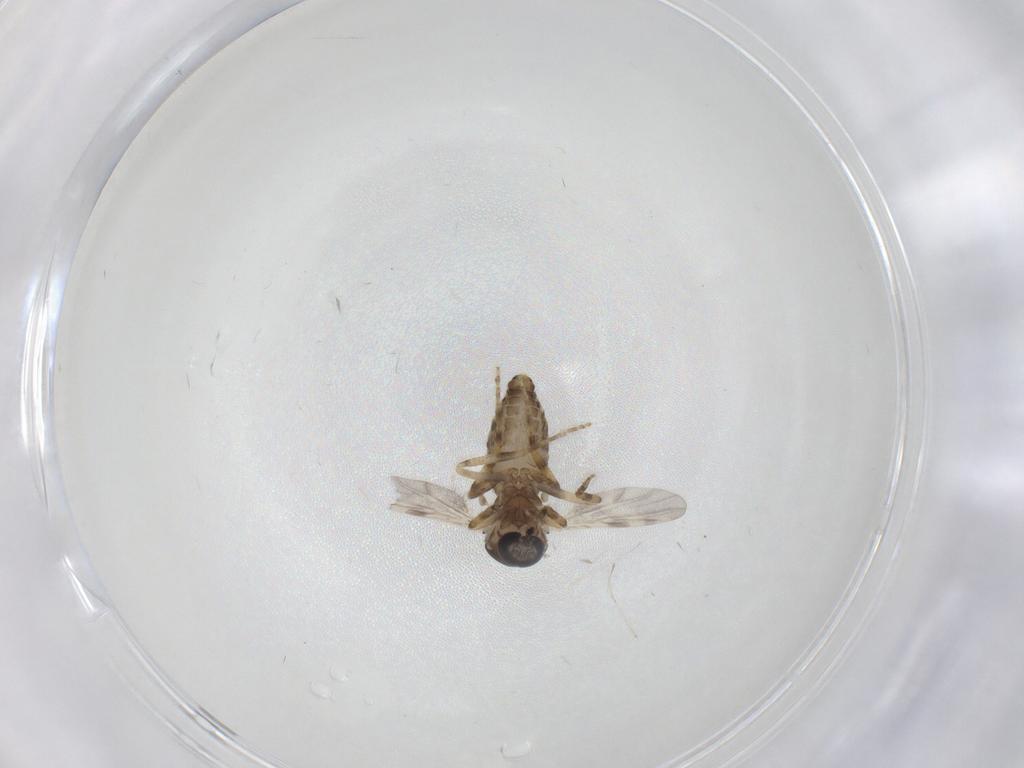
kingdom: Animalia
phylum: Arthropoda
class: Insecta
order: Diptera
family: Ceratopogonidae
